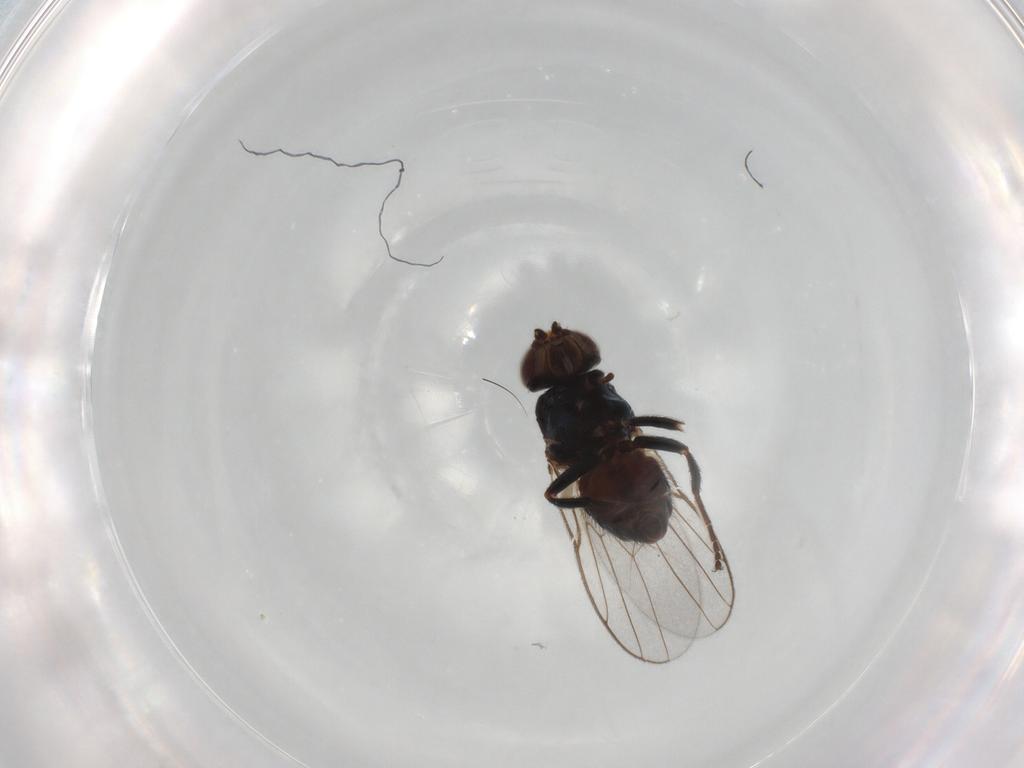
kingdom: Animalia
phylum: Arthropoda
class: Insecta
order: Diptera
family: Chloropidae
